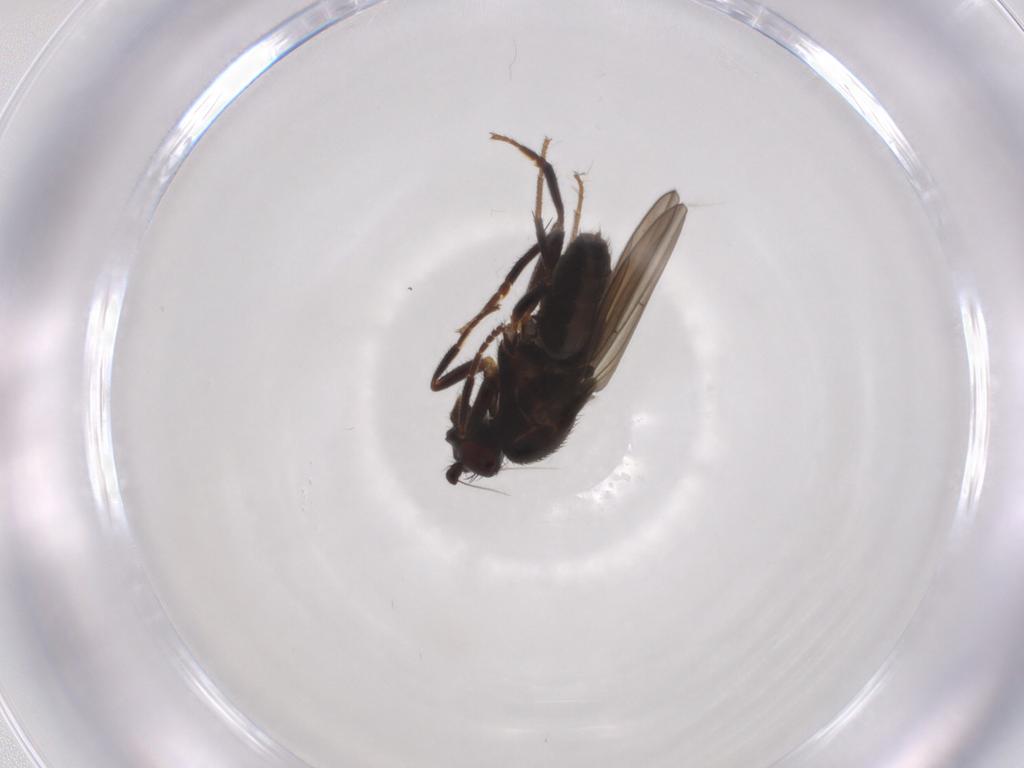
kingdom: Animalia
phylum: Arthropoda
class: Insecta
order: Diptera
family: Sphaeroceridae
